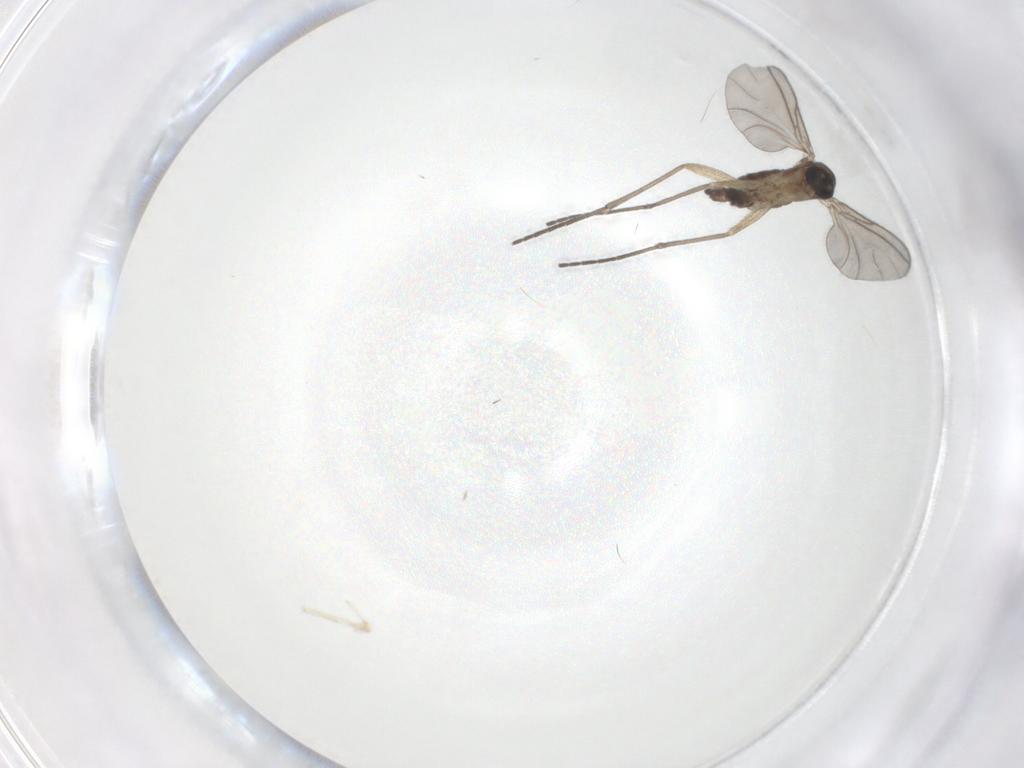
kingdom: Animalia
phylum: Arthropoda
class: Insecta
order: Diptera
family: Sciaridae
